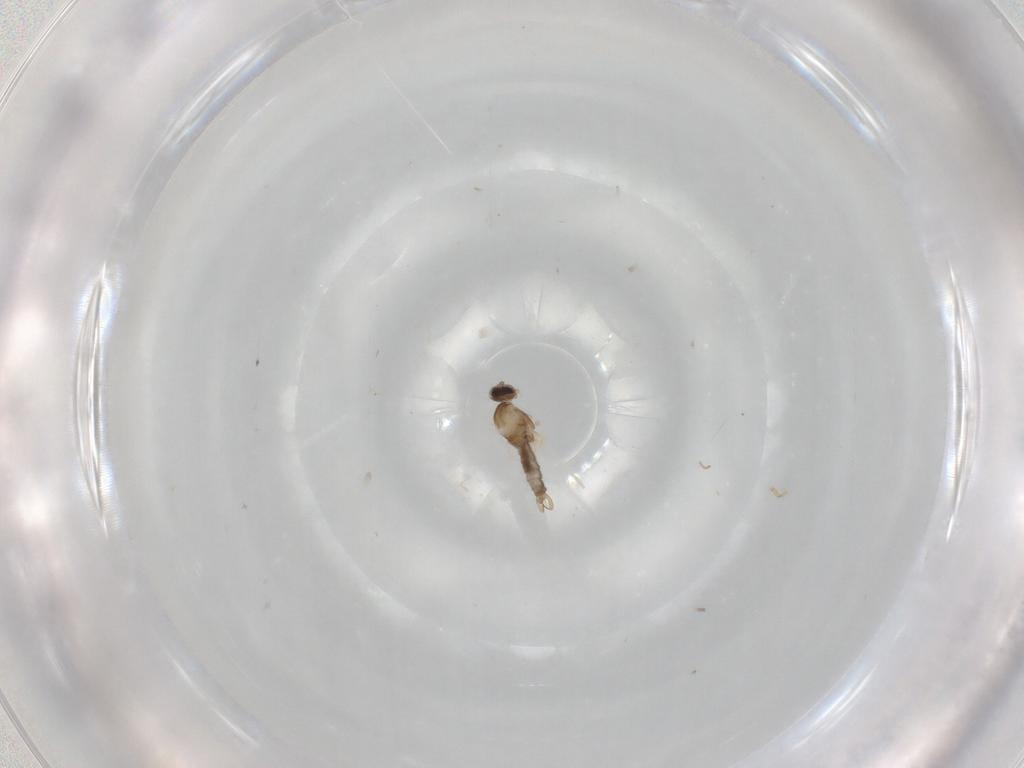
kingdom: Animalia
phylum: Arthropoda
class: Insecta
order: Diptera
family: Cecidomyiidae
